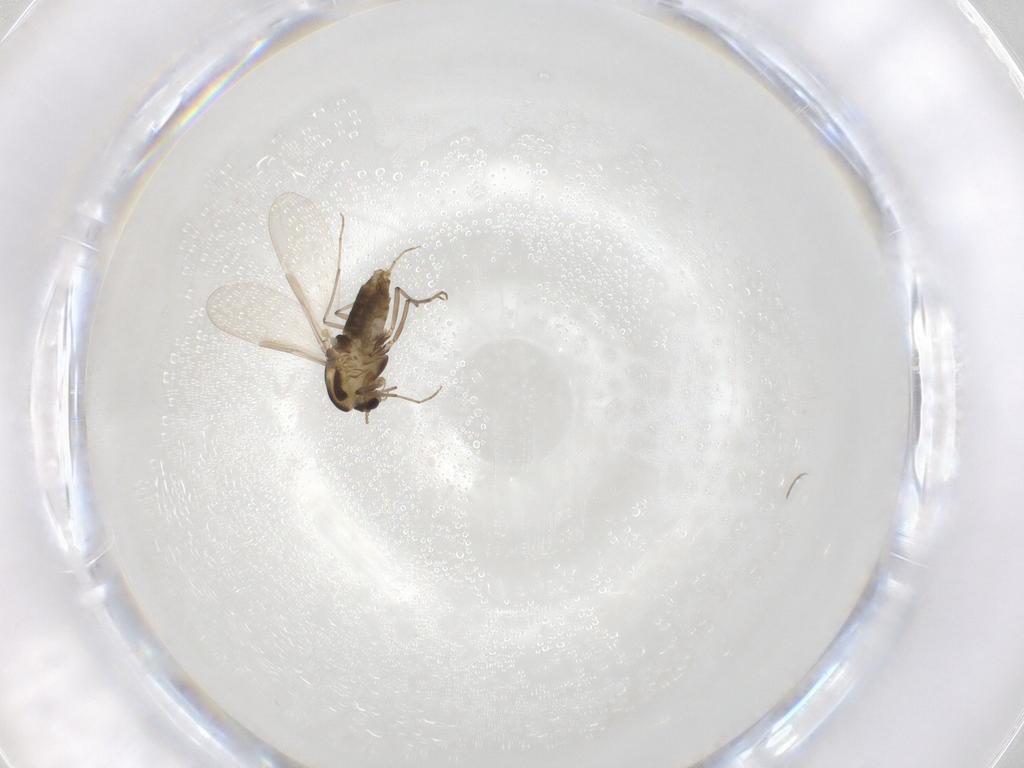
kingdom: Animalia
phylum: Arthropoda
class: Insecta
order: Diptera
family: Chironomidae
